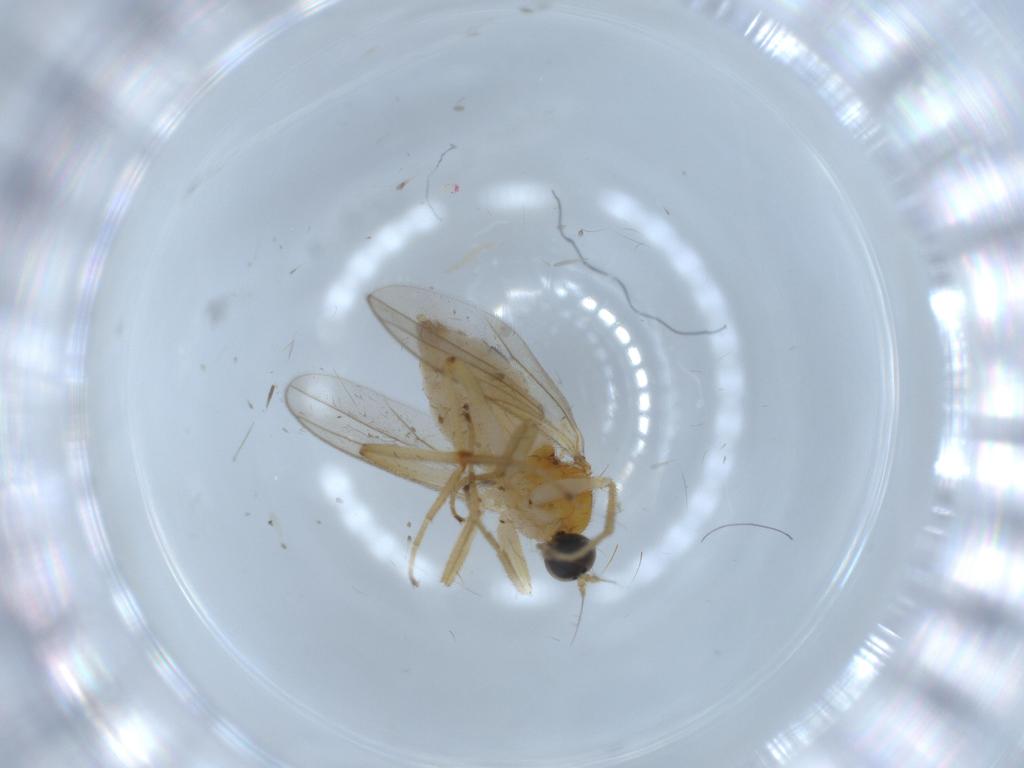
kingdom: Animalia
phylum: Arthropoda
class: Insecta
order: Diptera
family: Hybotidae
